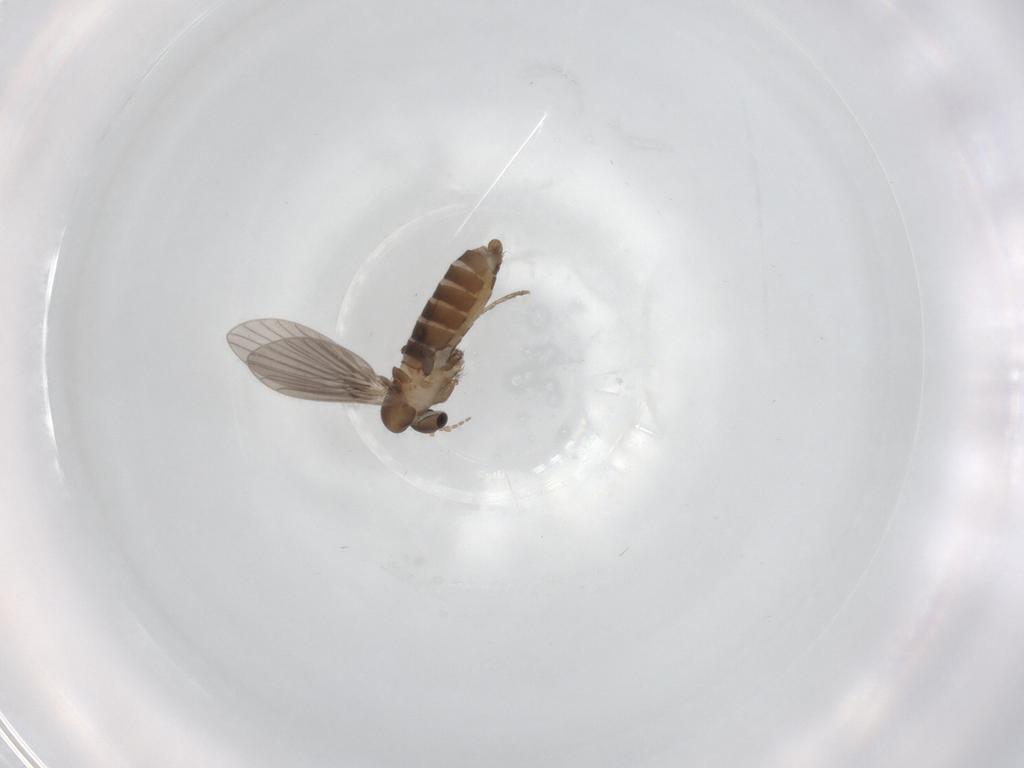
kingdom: Animalia
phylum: Arthropoda
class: Insecta
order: Diptera
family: Psychodidae
